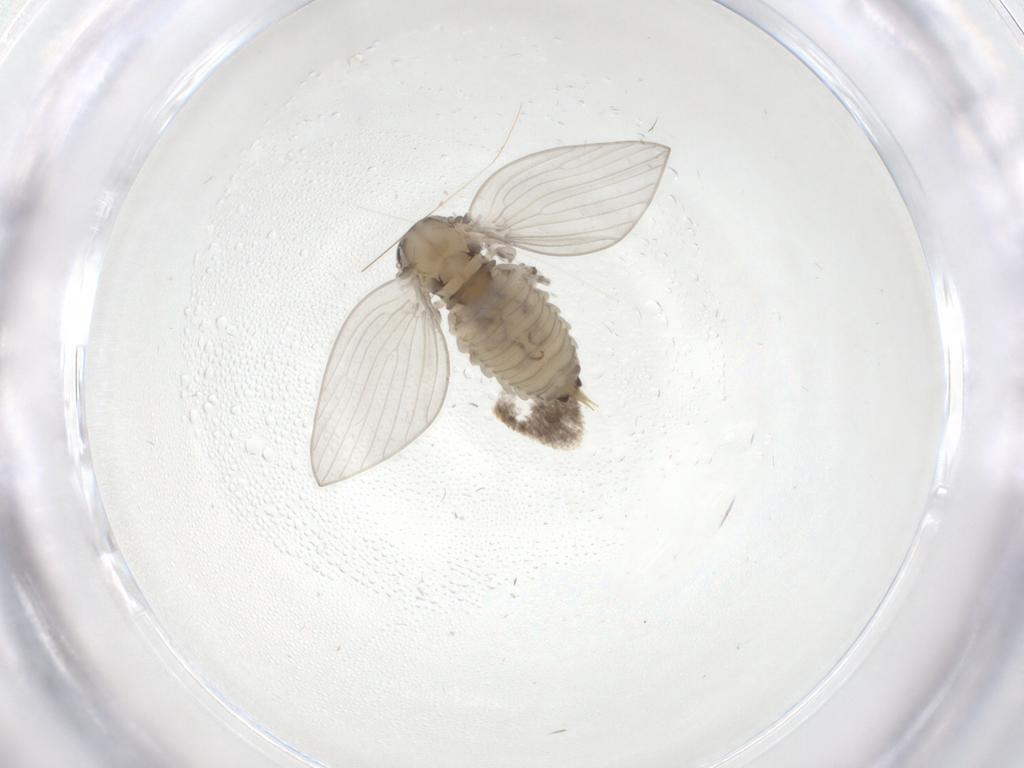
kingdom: Animalia
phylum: Arthropoda
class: Insecta
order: Diptera
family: Psychodidae
